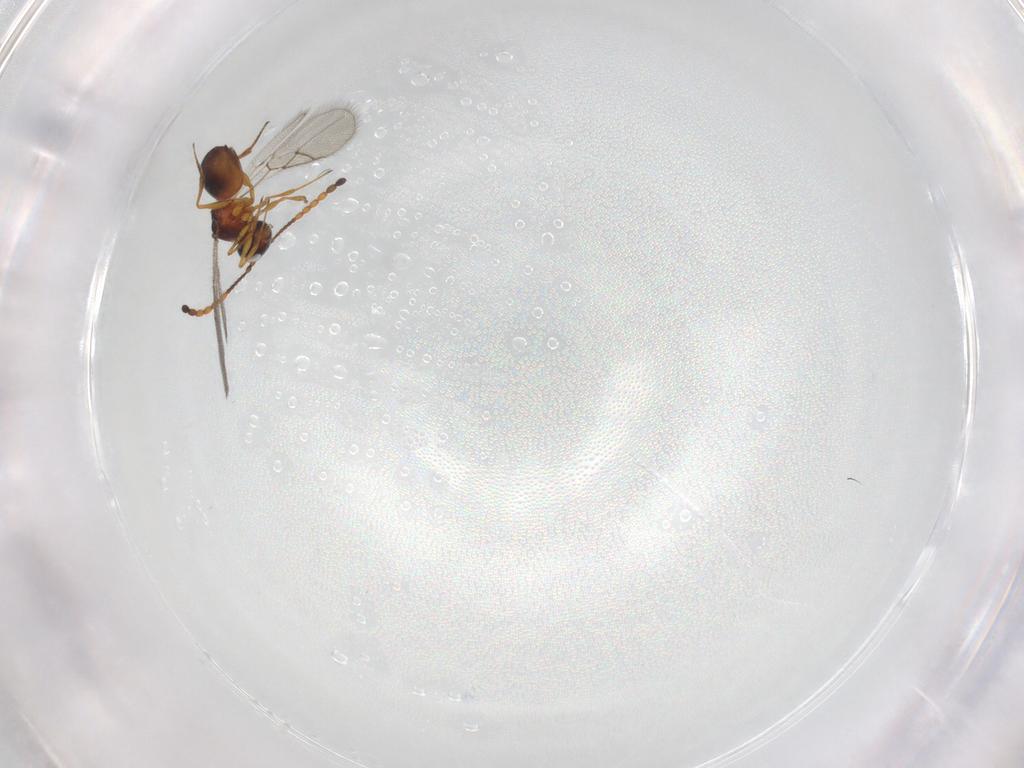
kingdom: Animalia
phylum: Arthropoda
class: Insecta
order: Hymenoptera
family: Figitidae
